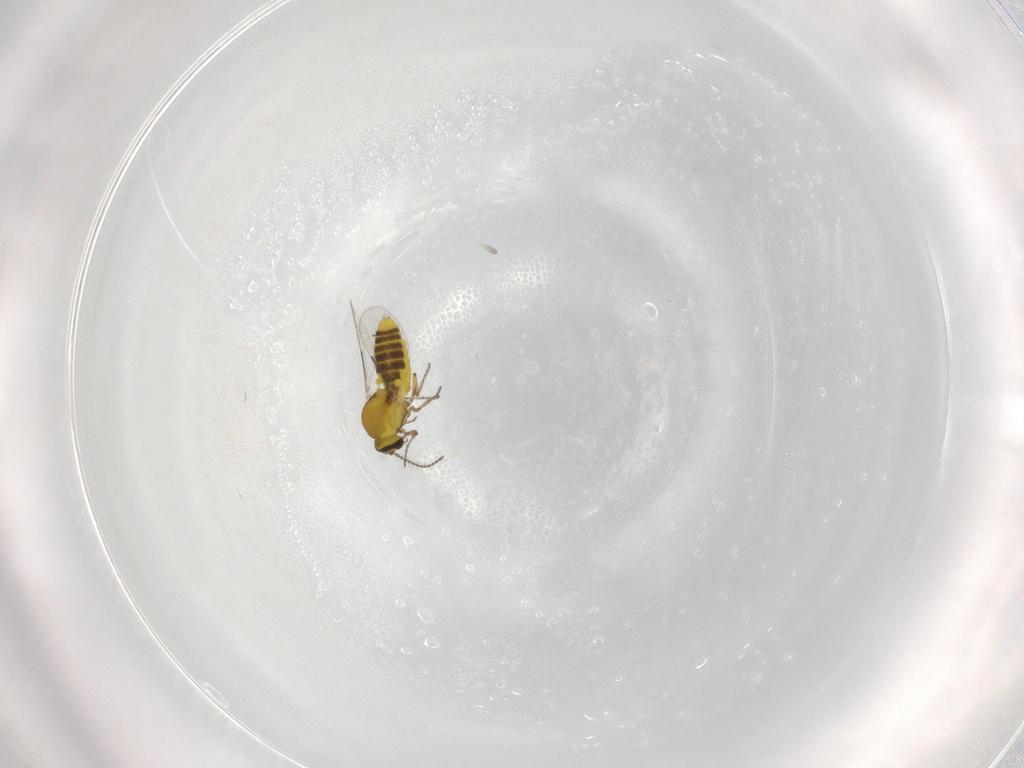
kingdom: Animalia
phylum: Arthropoda
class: Insecta
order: Diptera
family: Ceratopogonidae
